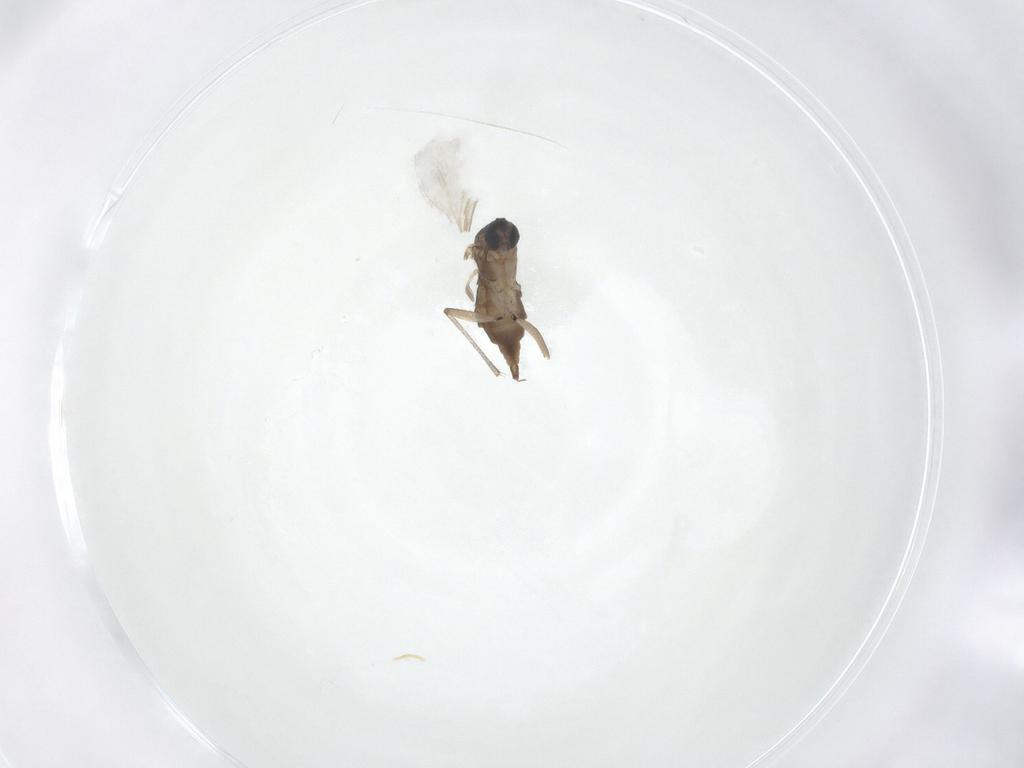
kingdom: Animalia
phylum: Arthropoda
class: Insecta
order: Diptera
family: Sciaridae
